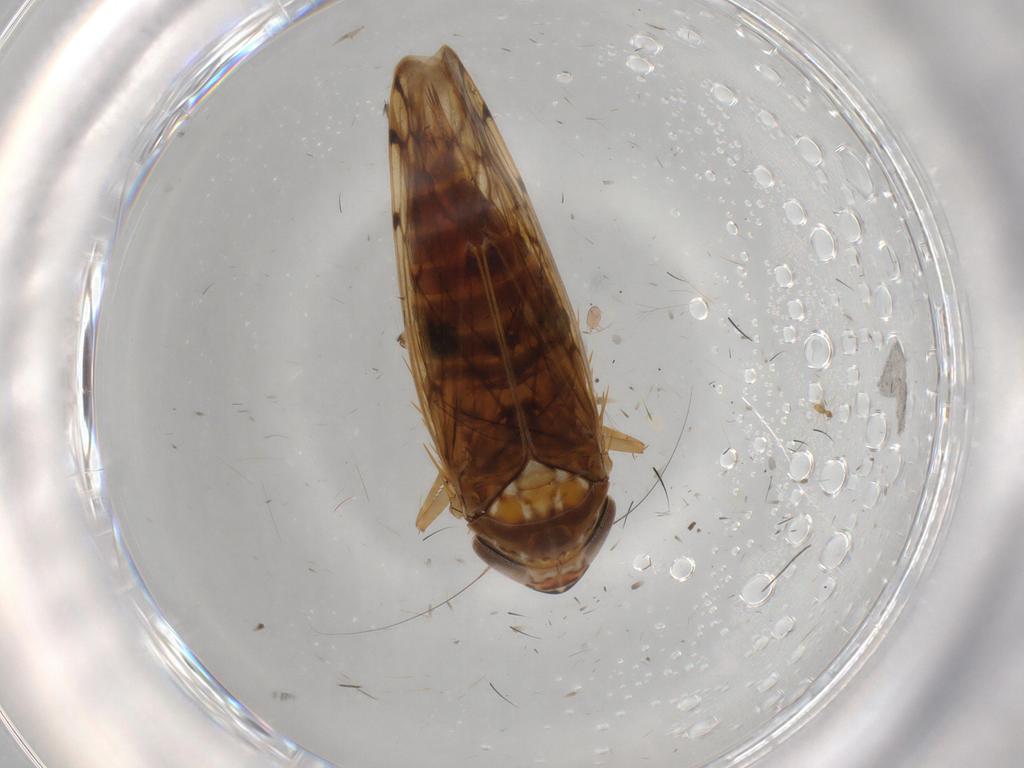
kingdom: Animalia
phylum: Arthropoda
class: Insecta
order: Hemiptera
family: Cicadellidae
